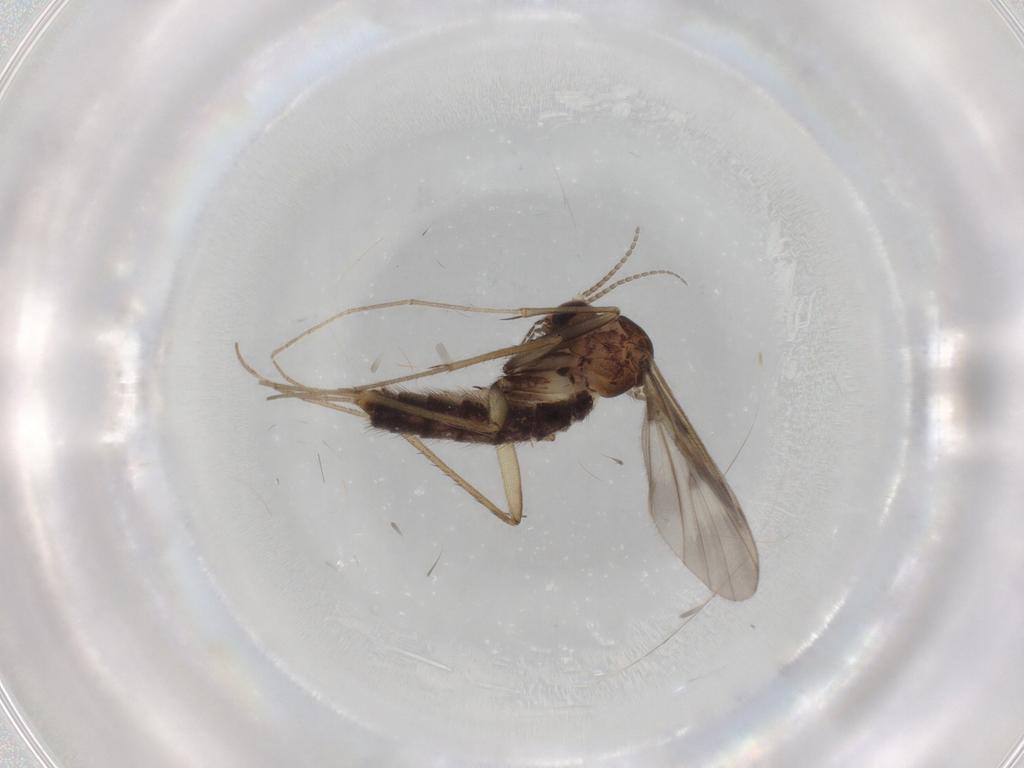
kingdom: Animalia
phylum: Arthropoda
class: Insecta
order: Diptera
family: Mycetophilidae
